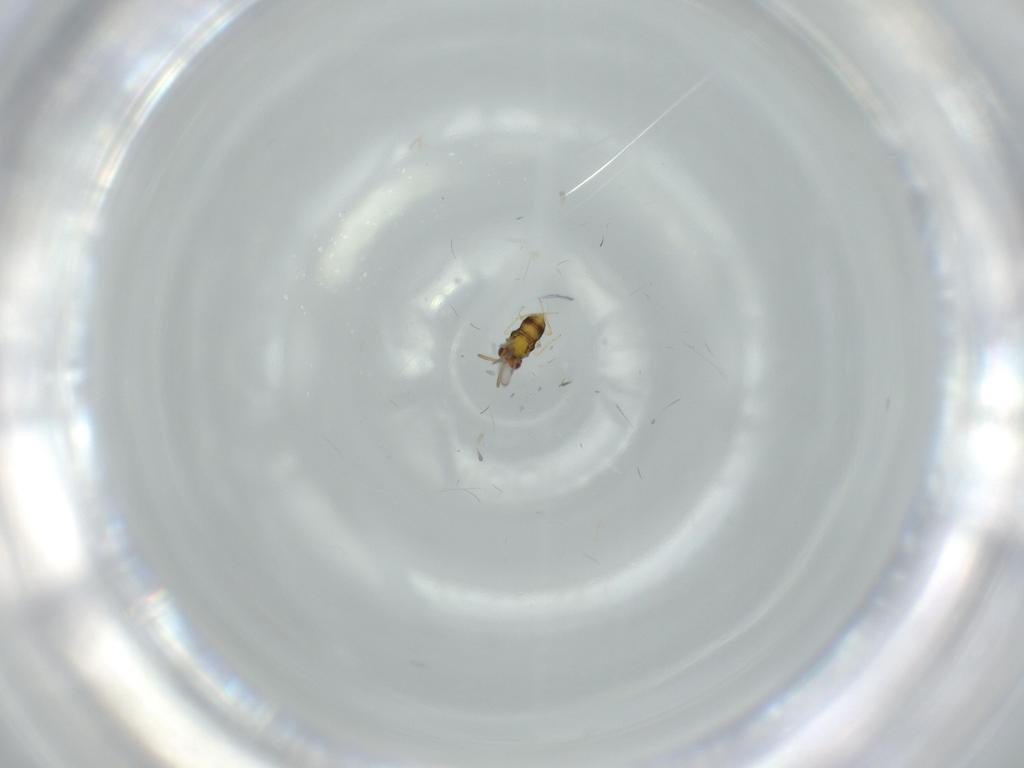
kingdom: Animalia
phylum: Arthropoda
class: Insecta
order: Hymenoptera
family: Aphelinidae
